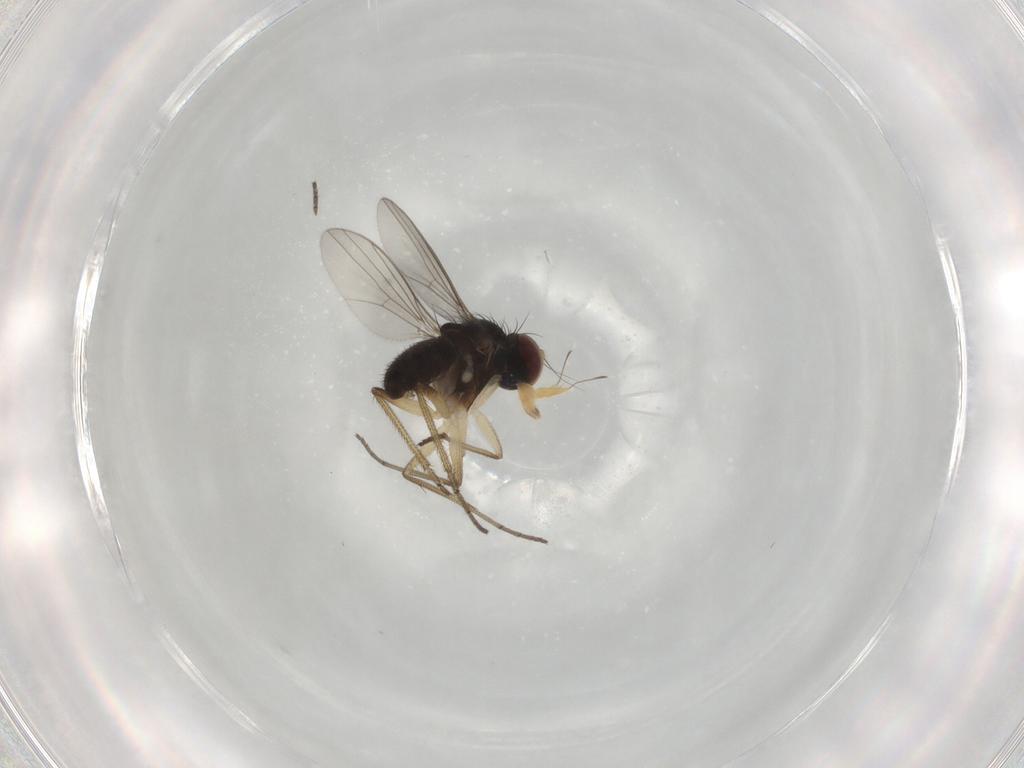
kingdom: Animalia
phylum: Arthropoda
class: Insecta
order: Diptera
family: Dolichopodidae
